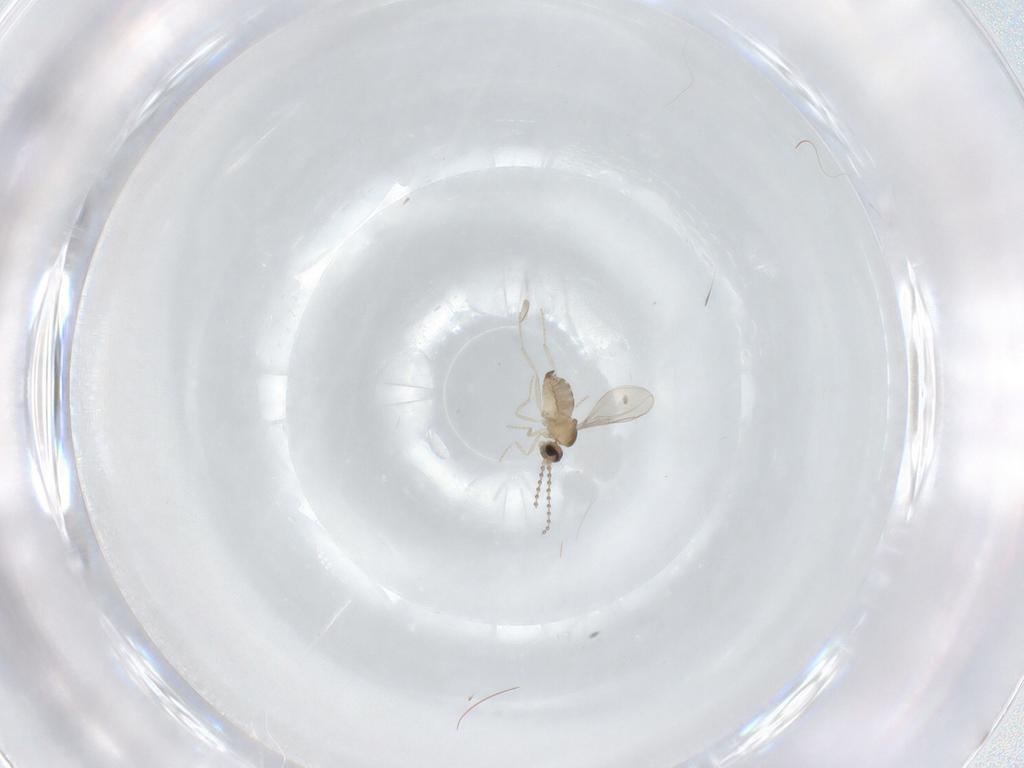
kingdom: Animalia
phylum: Arthropoda
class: Insecta
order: Diptera
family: Cecidomyiidae
